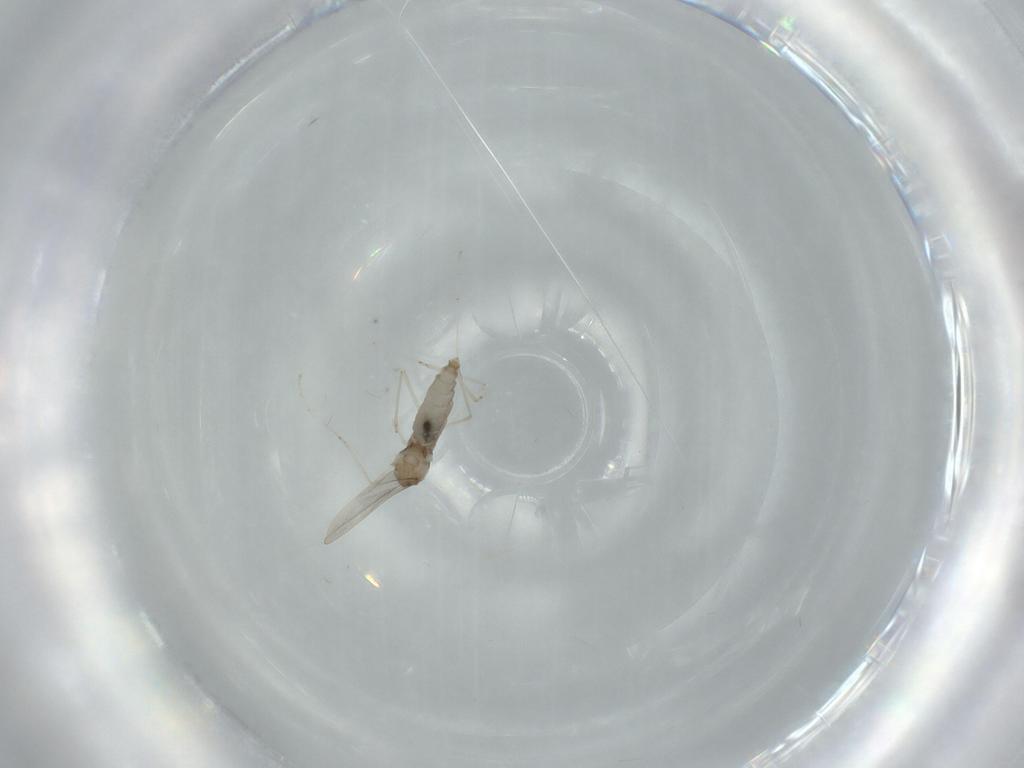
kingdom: Animalia
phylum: Arthropoda
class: Insecta
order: Diptera
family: Cecidomyiidae
